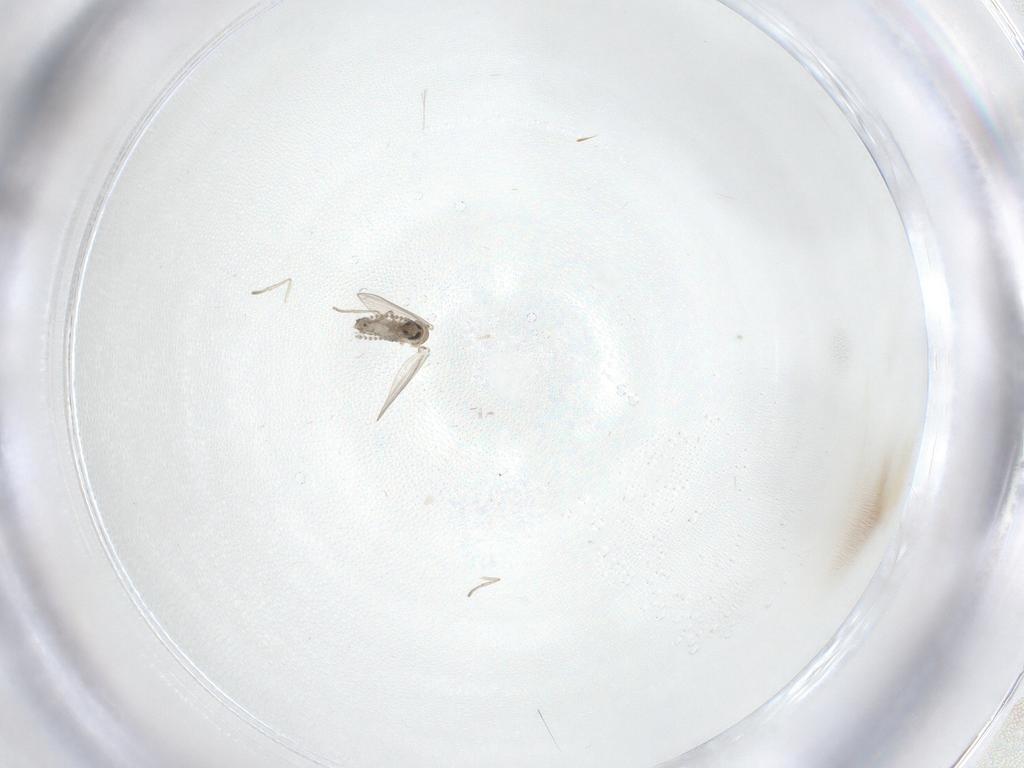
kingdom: Animalia
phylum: Arthropoda
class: Insecta
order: Diptera
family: Psychodidae
